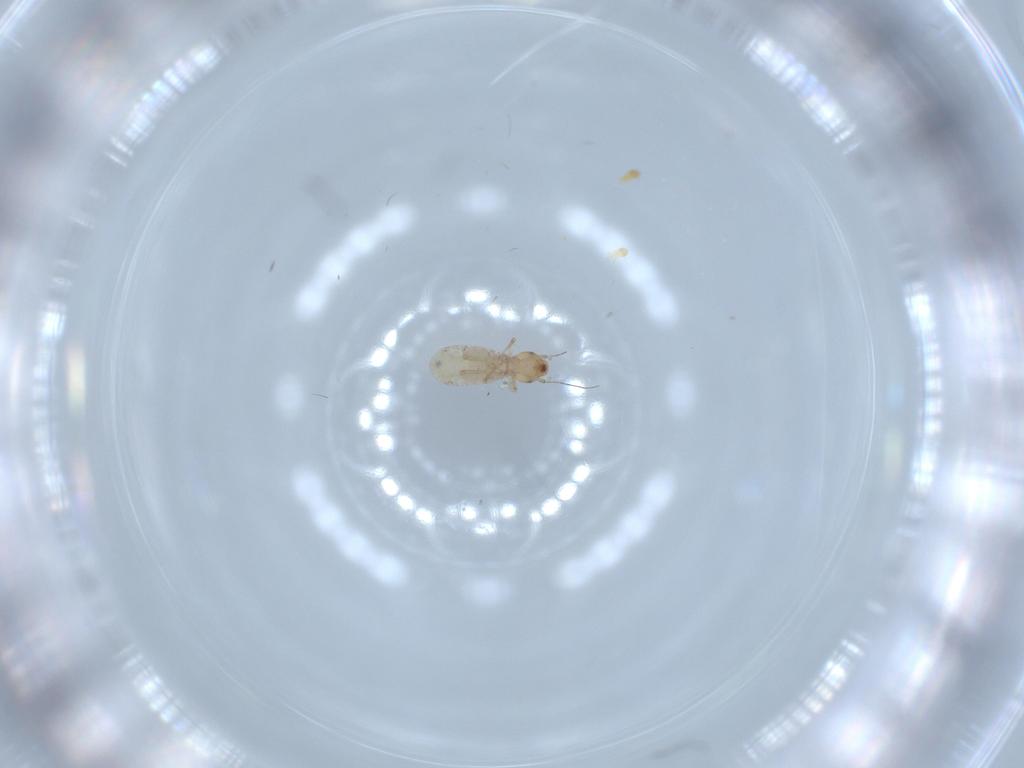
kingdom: Animalia
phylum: Arthropoda
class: Insecta
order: Psocodea
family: Liposcelididae
